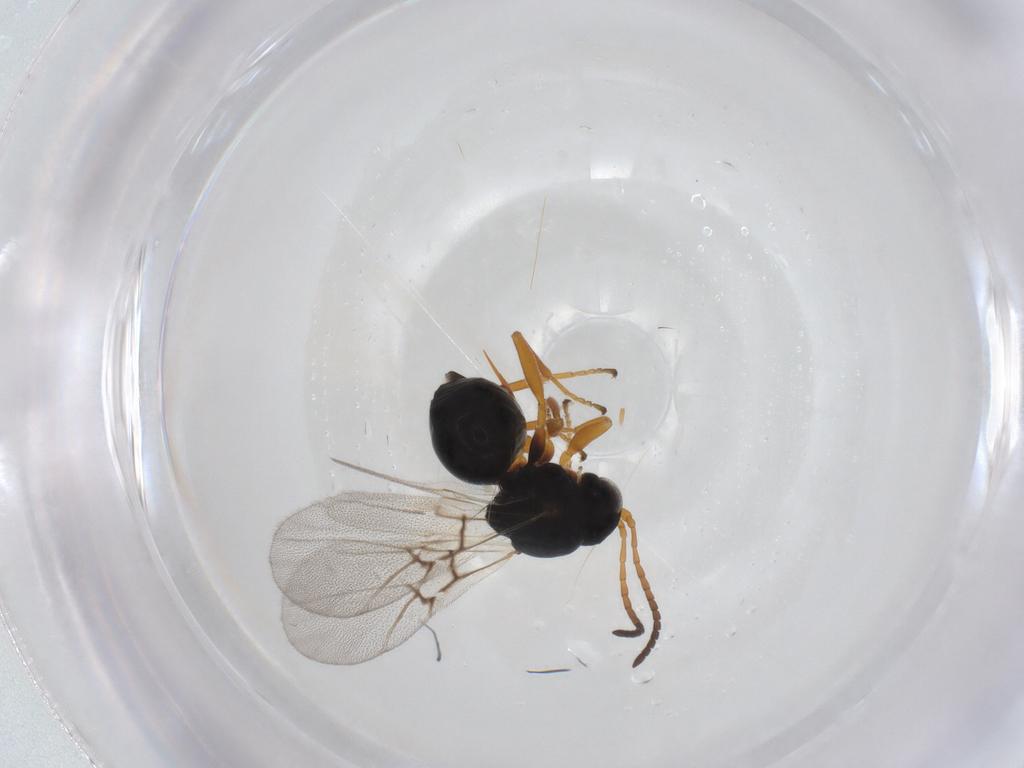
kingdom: Animalia
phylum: Arthropoda
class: Insecta
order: Hymenoptera
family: Cynipidae
